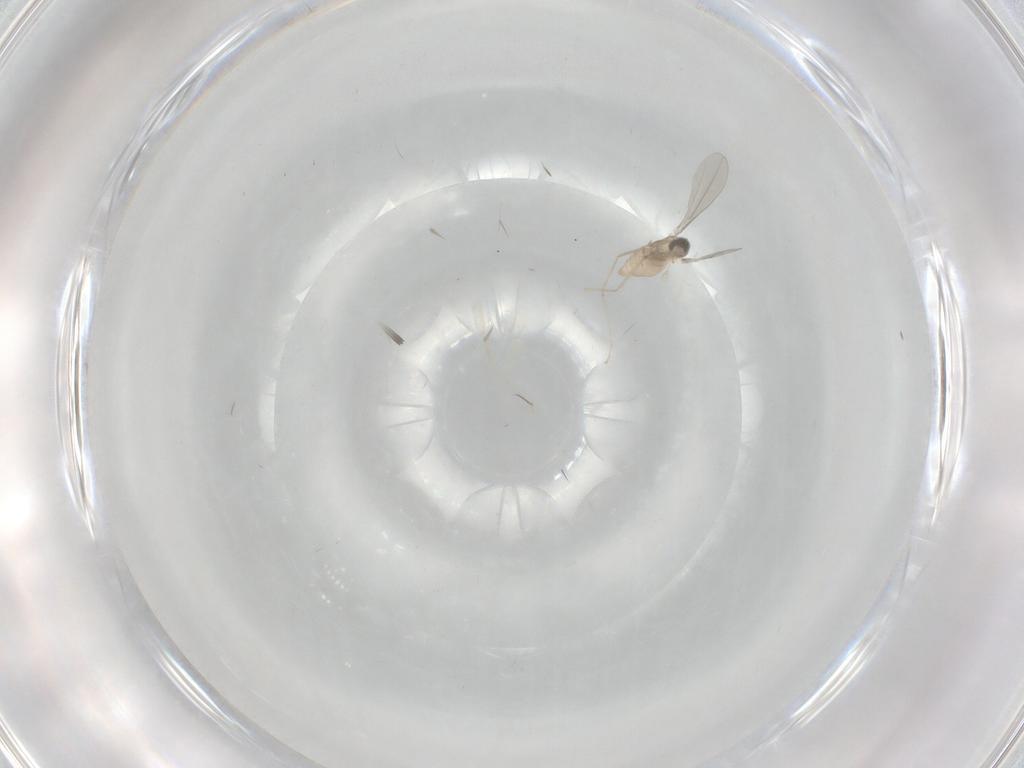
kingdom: Animalia
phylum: Arthropoda
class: Insecta
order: Diptera
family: Cecidomyiidae
